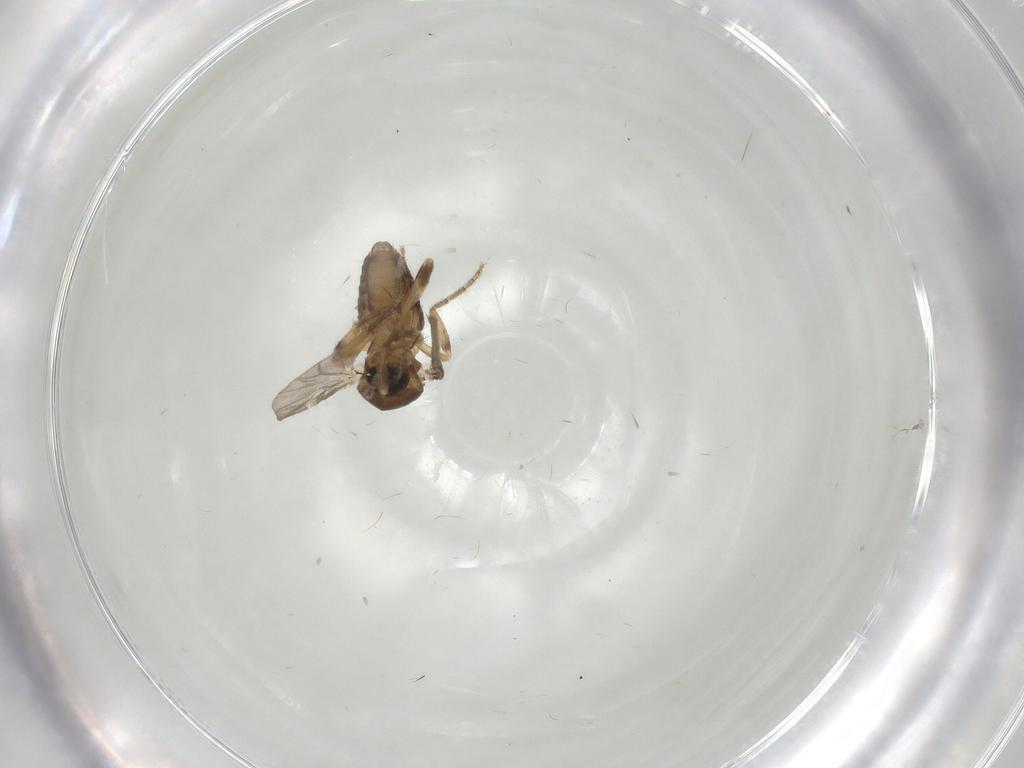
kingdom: Animalia
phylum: Arthropoda
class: Insecta
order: Diptera
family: Ceratopogonidae
